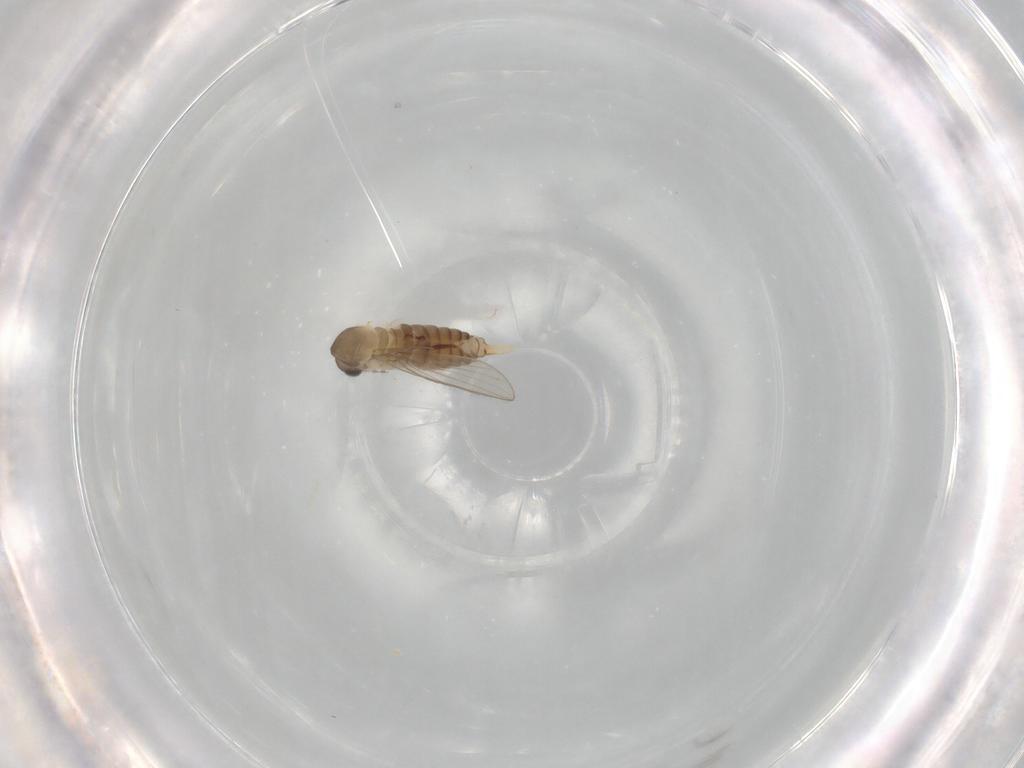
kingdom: Animalia
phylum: Arthropoda
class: Insecta
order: Diptera
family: Psychodidae
